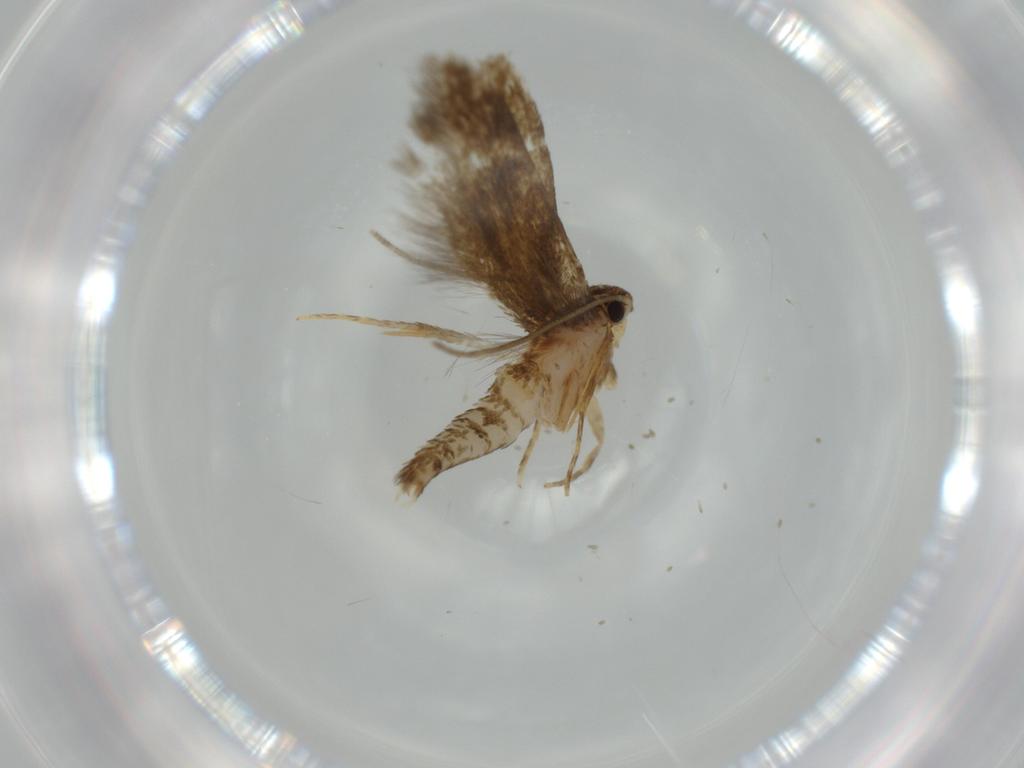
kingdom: Animalia
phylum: Arthropoda
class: Insecta
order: Lepidoptera
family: Tineidae
